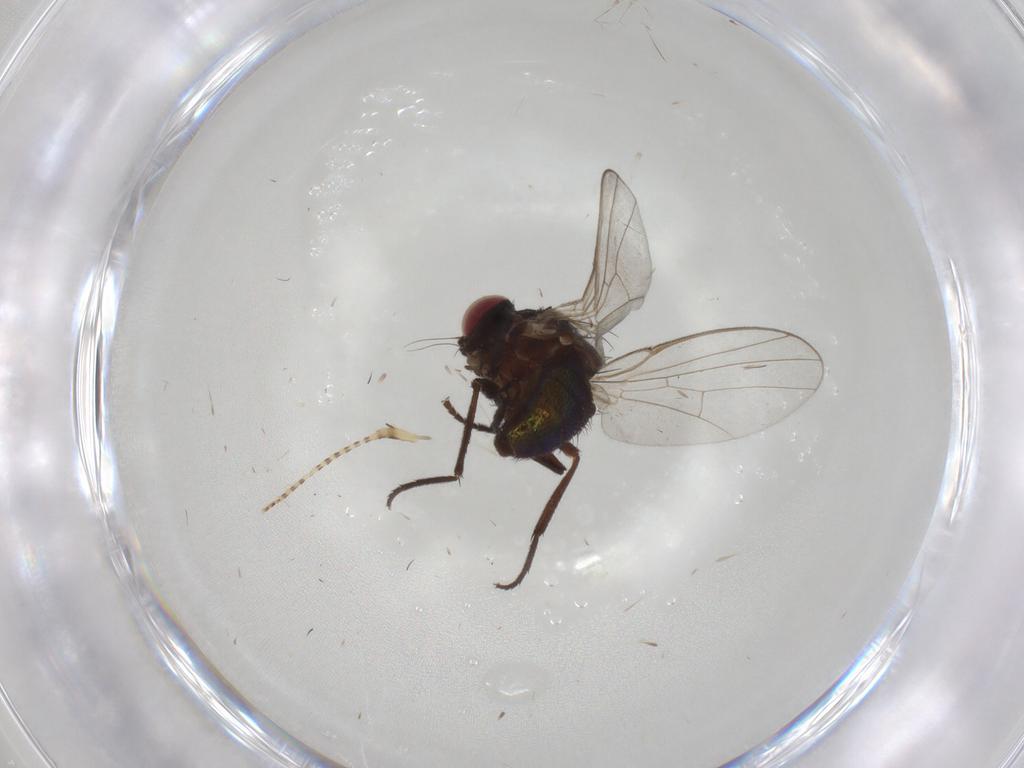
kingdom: Animalia
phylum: Arthropoda
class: Insecta
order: Diptera
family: Agromyzidae
